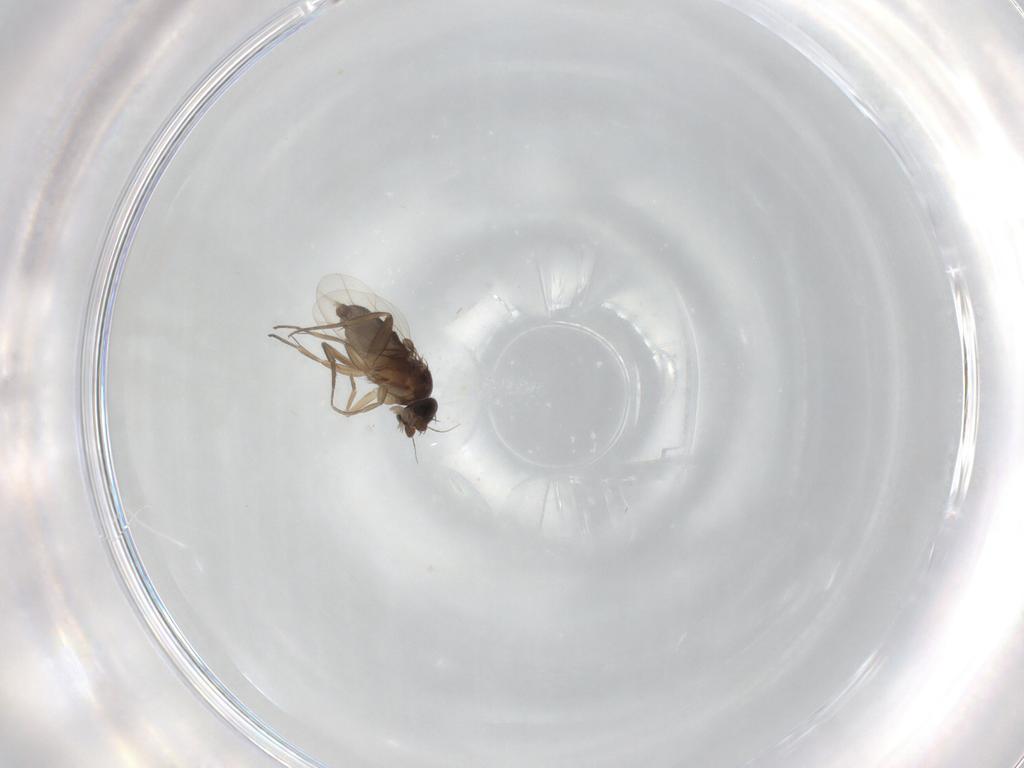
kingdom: Animalia
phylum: Arthropoda
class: Insecta
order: Diptera
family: Phoridae
